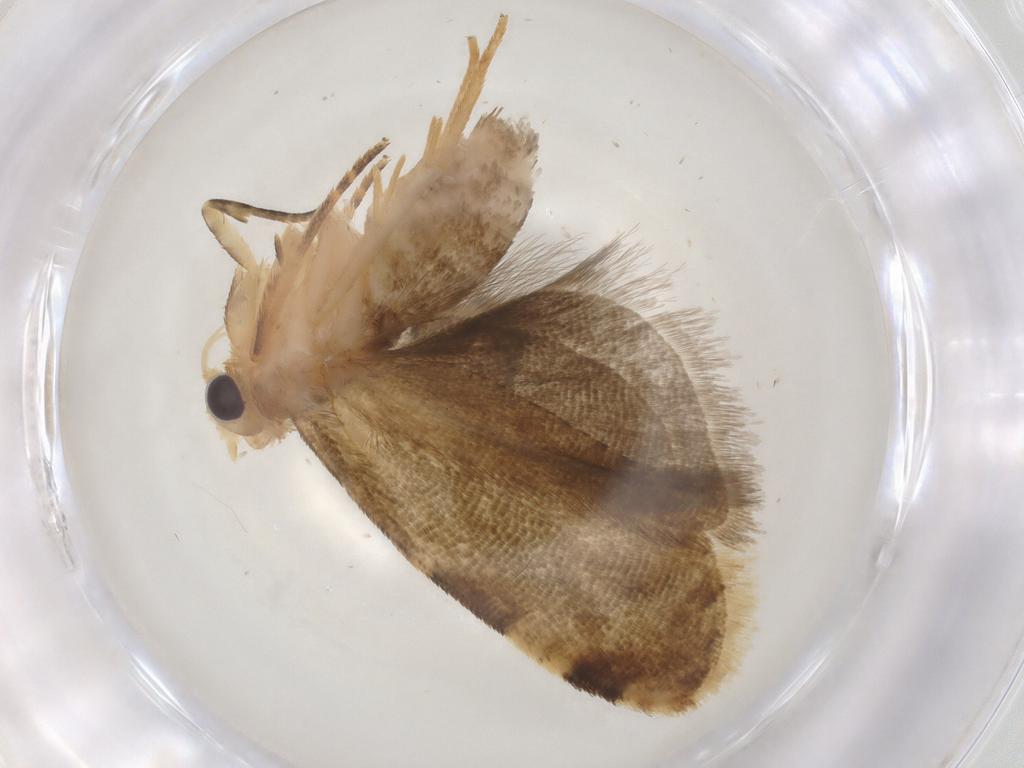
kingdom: Animalia
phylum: Arthropoda
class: Insecta
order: Lepidoptera
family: Tortricidae
